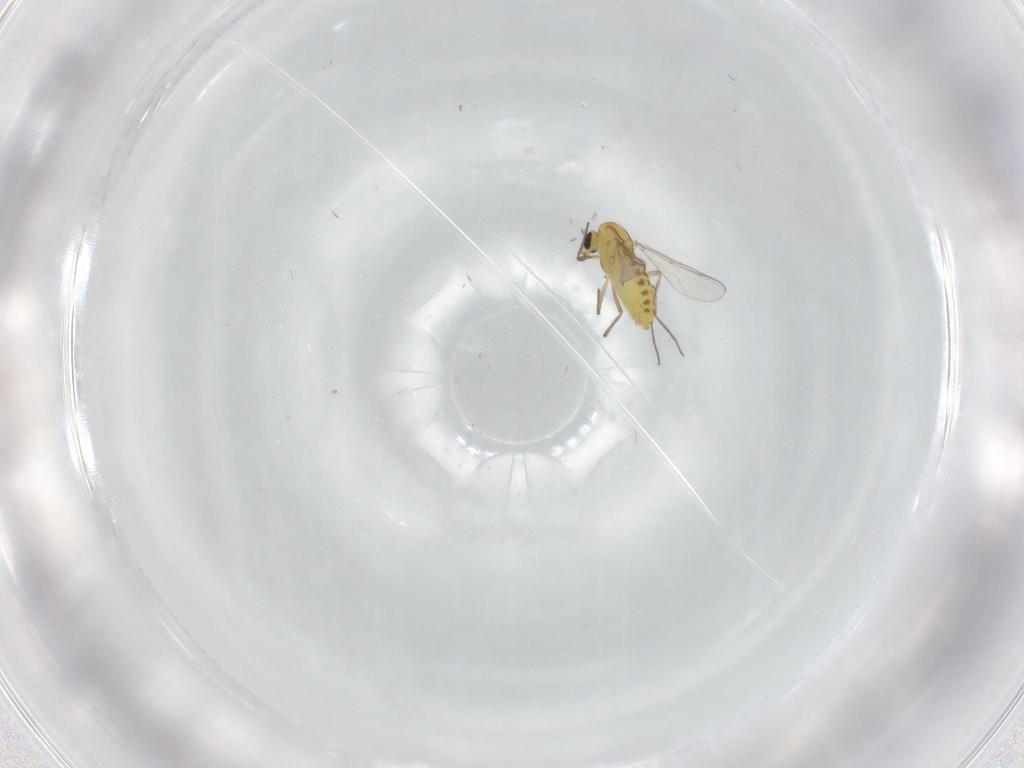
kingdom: Animalia
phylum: Arthropoda
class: Insecta
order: Diptera
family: Chironomidae
